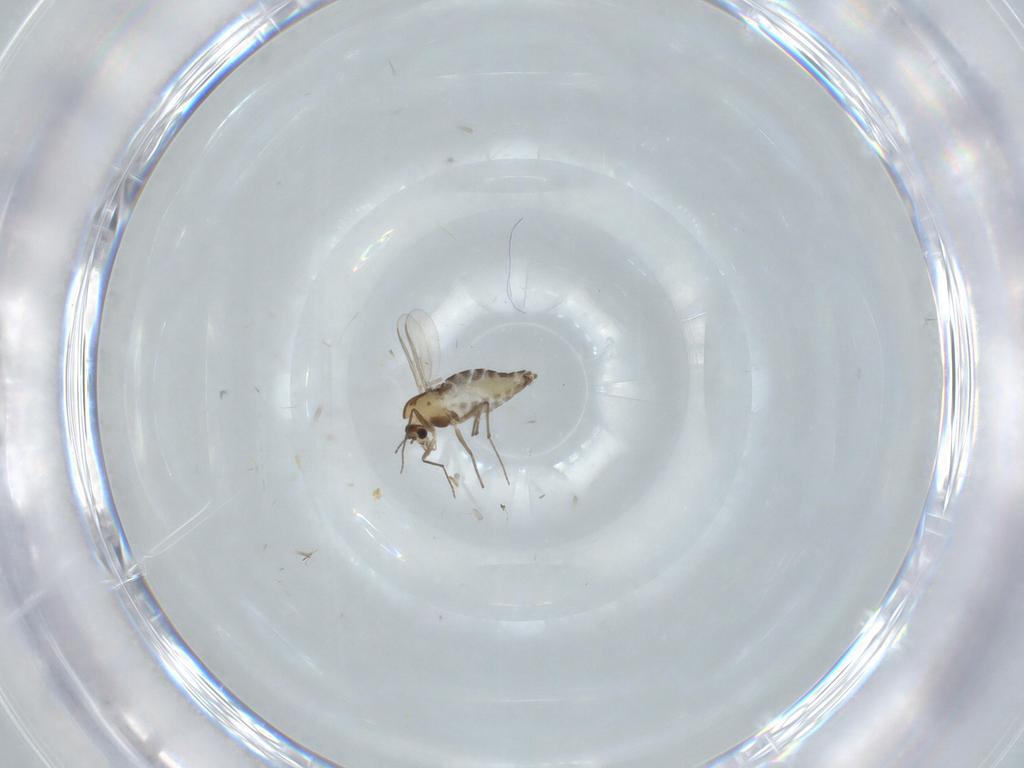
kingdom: Animalia
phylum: Arthropoda
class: Insecta
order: Diptera
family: Chironomidae
